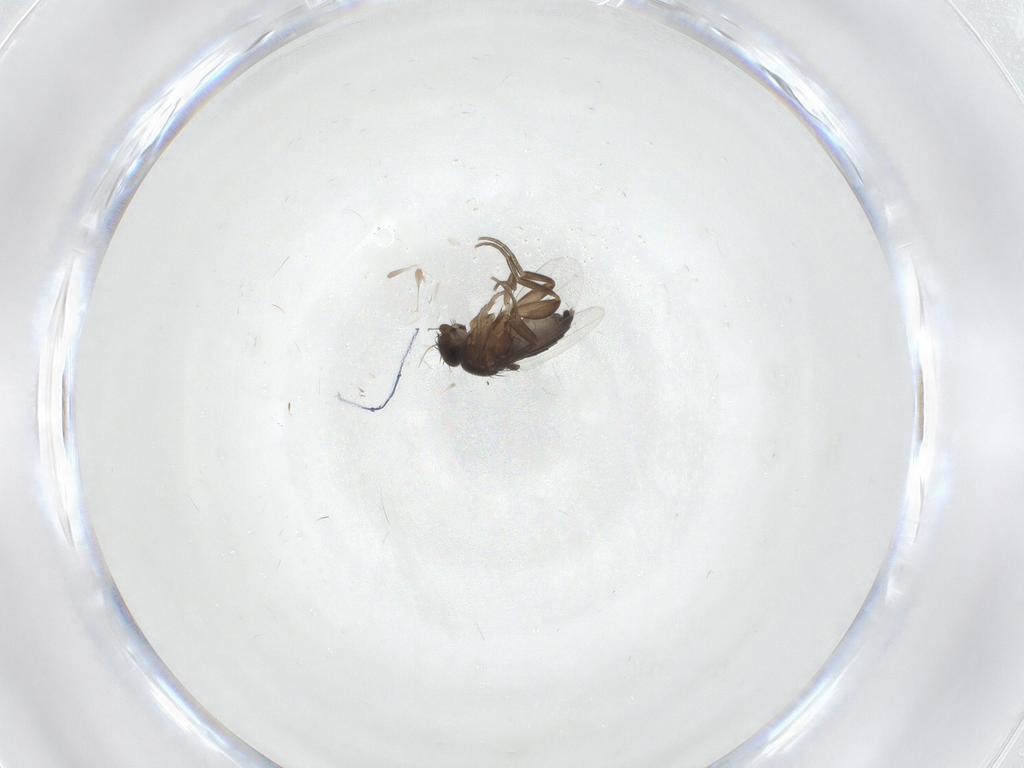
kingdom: Animalia
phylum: Arthropoda
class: Insecta
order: Diptera
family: Phoridae
